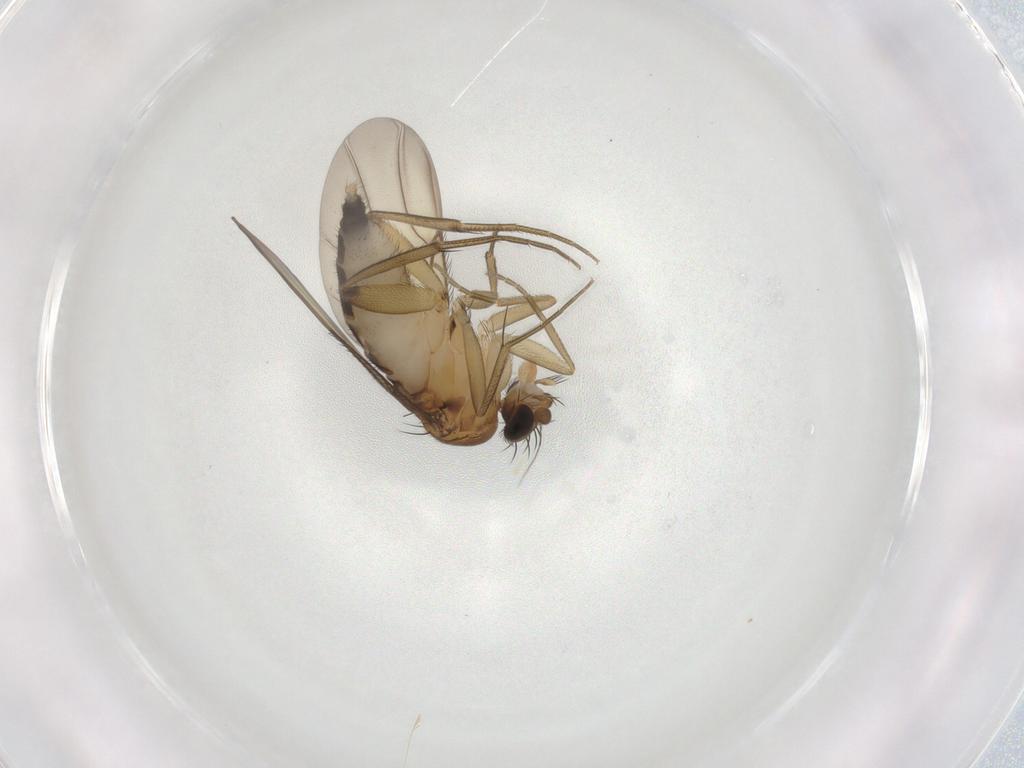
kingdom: Animalia
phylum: Arthropoda
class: Insecta
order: Diptera
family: Phoridae
